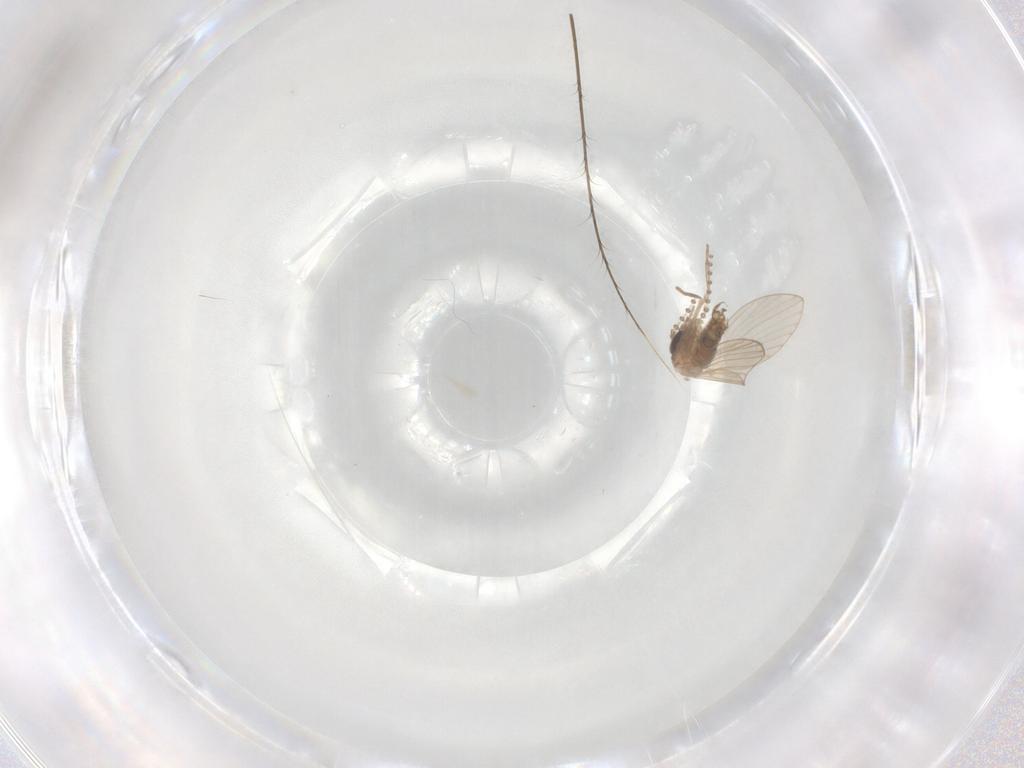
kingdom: Animalia
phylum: Arthropoda
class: Insecta
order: Diptera
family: Psychodidae
